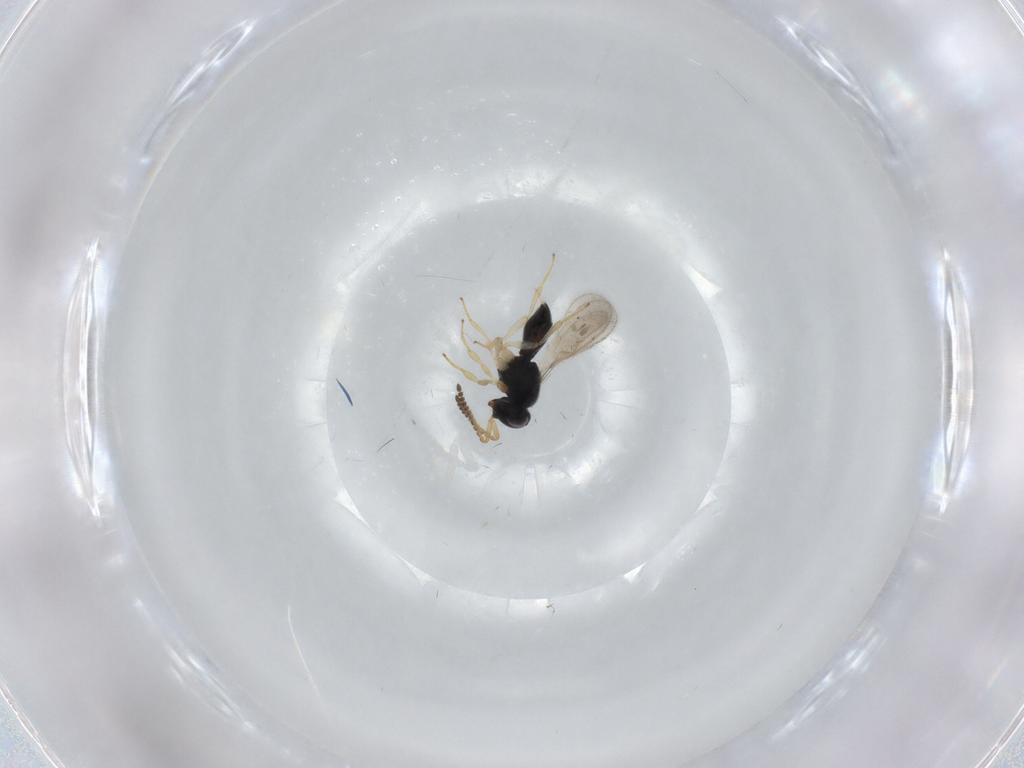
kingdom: Animalia
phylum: Arthropoda
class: Insecta
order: Hymenoptera
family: Scelionidae
